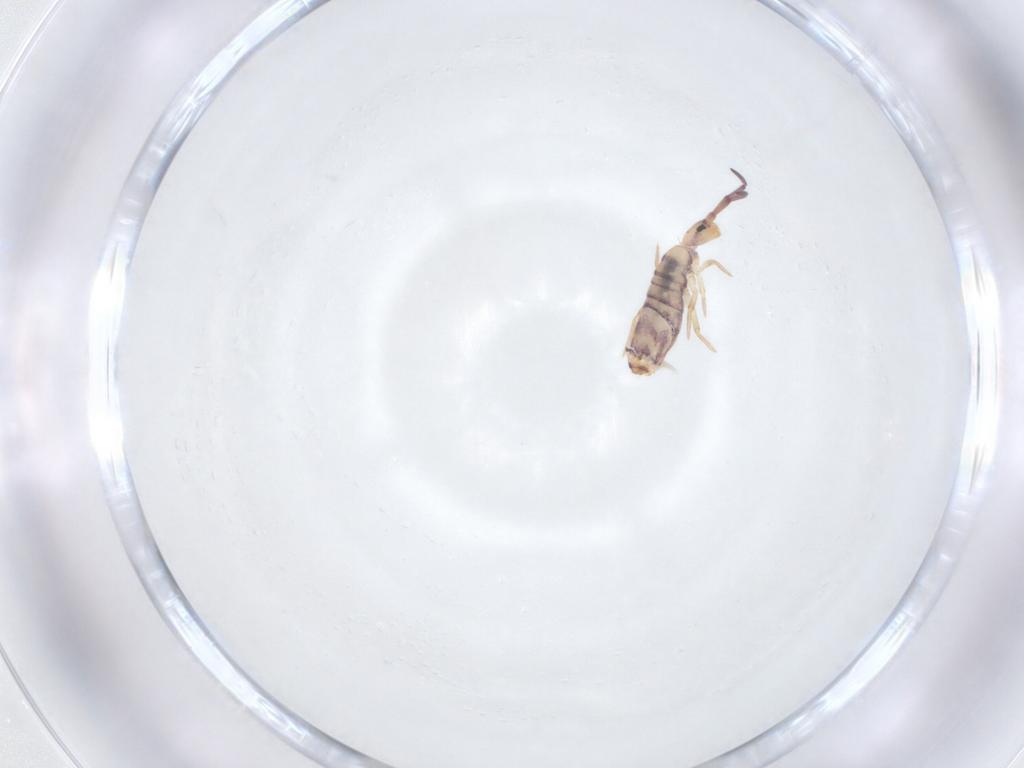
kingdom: Animalia
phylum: Arthropoda
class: Collembola
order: Entomobryomorpha
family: Entomobryidae
